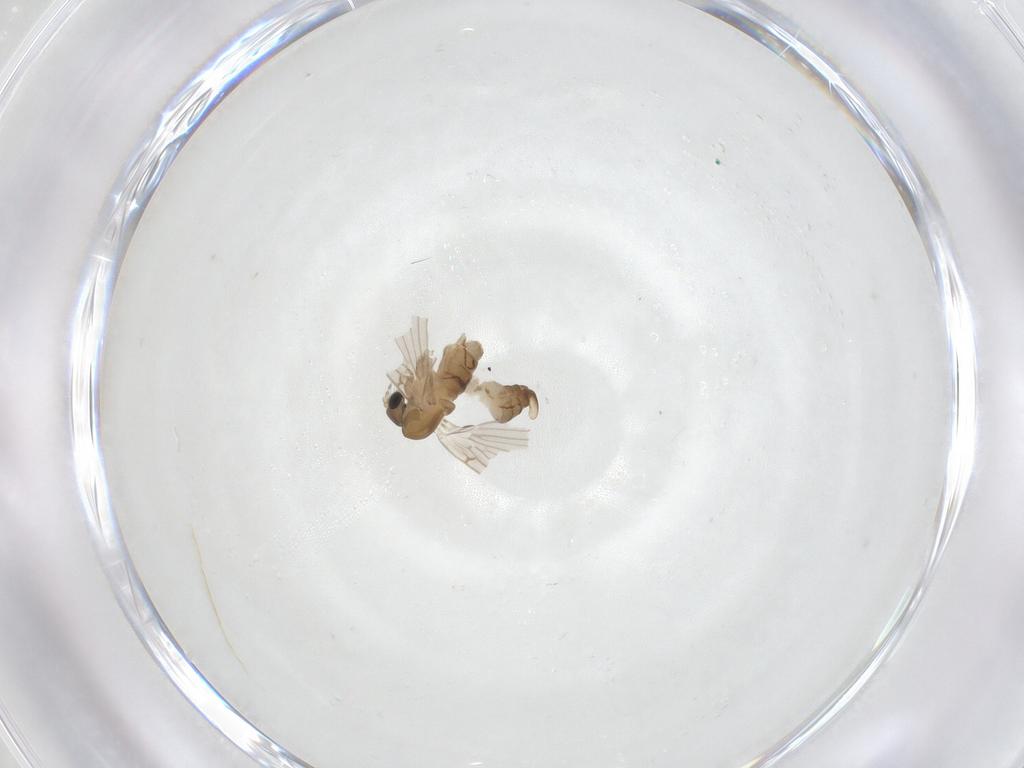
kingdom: Animalia
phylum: Arthropoda
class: Insecta
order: Diptera
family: Psychodidae
